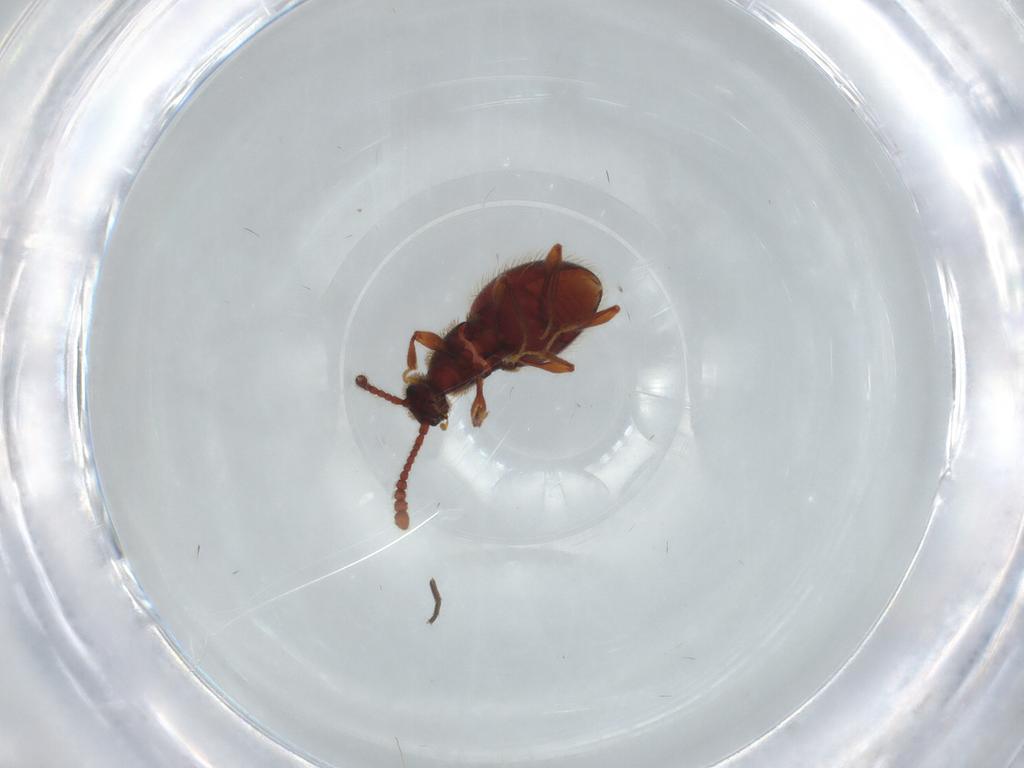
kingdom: Animalia
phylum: Arthropoda
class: Insecta
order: Coleoptera
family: Staphylinidae
